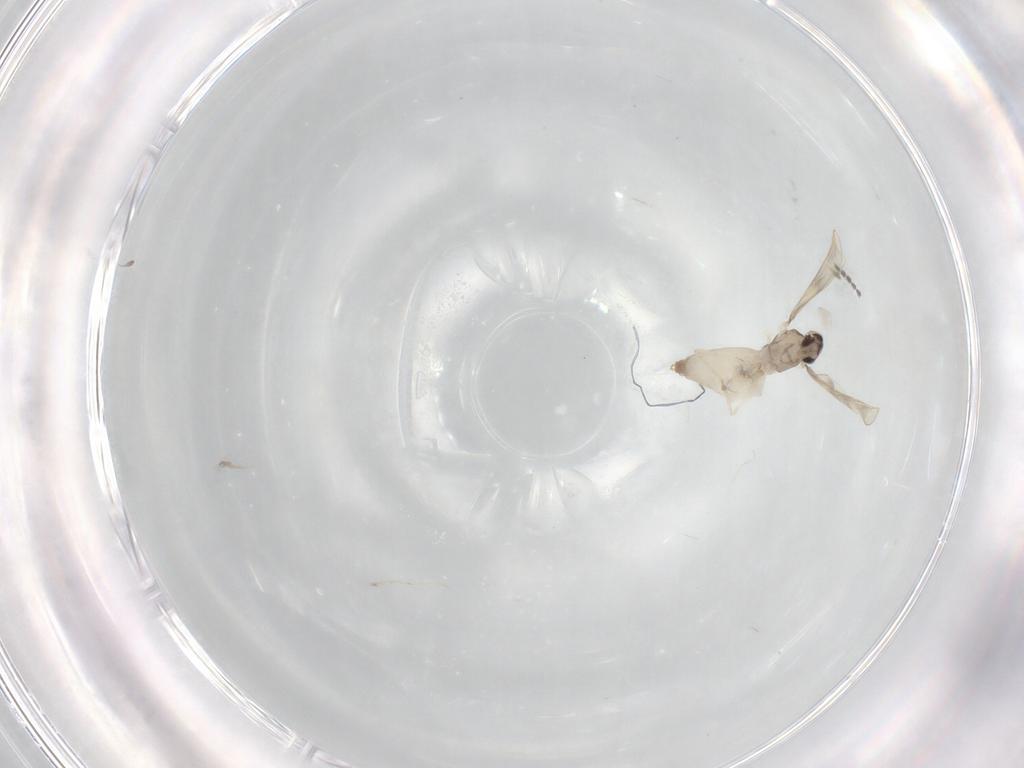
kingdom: Animalia
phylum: Arthropoda
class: Insecta
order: Diptera
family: Cecidomyiidae
